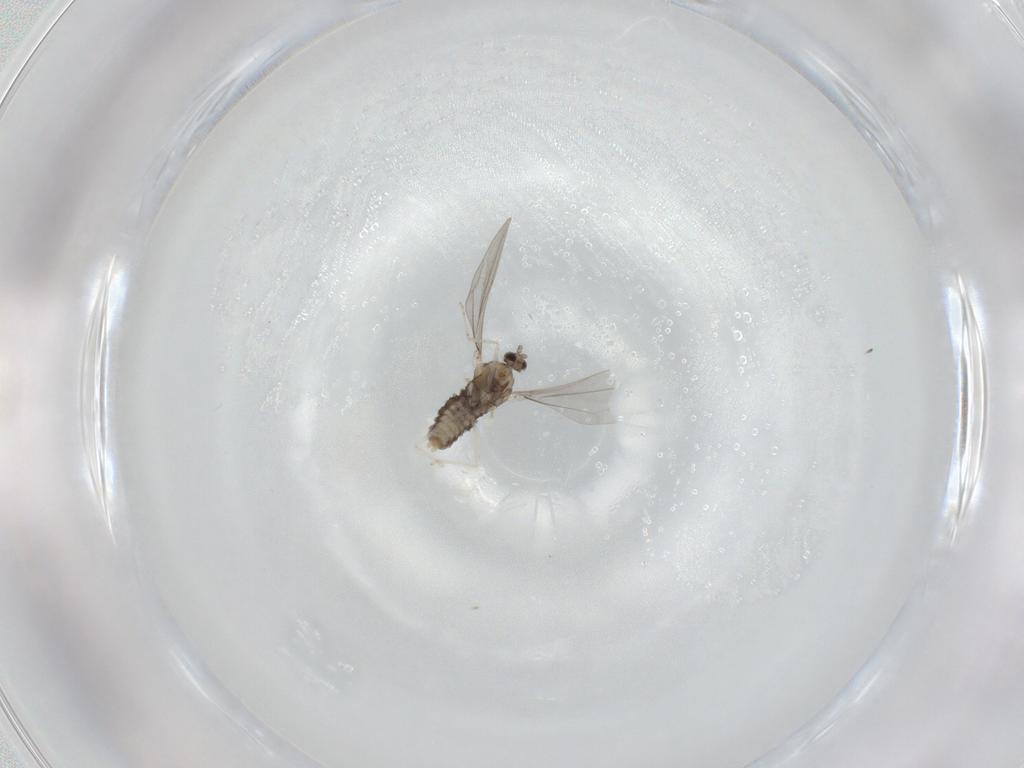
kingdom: Animalia
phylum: Arthropoda
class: Insecta
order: Diptera
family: Cecidomyiidae
